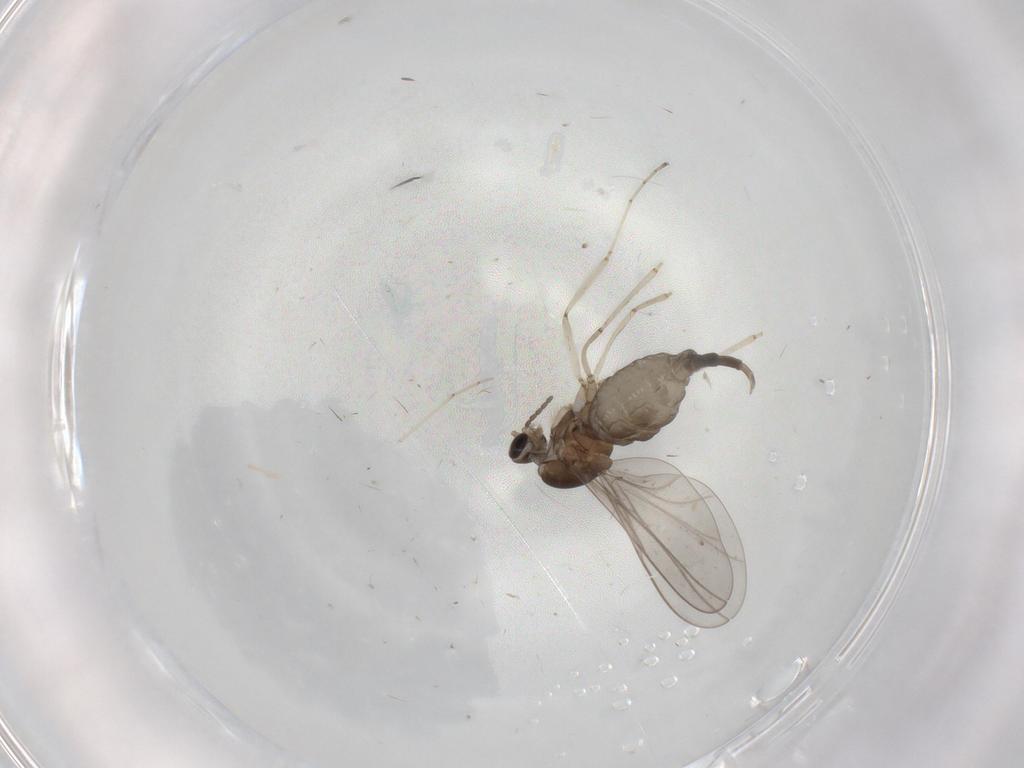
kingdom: Animalia
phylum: Arthropoda
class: Insecta
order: Diptera
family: Cecidomyiidae
